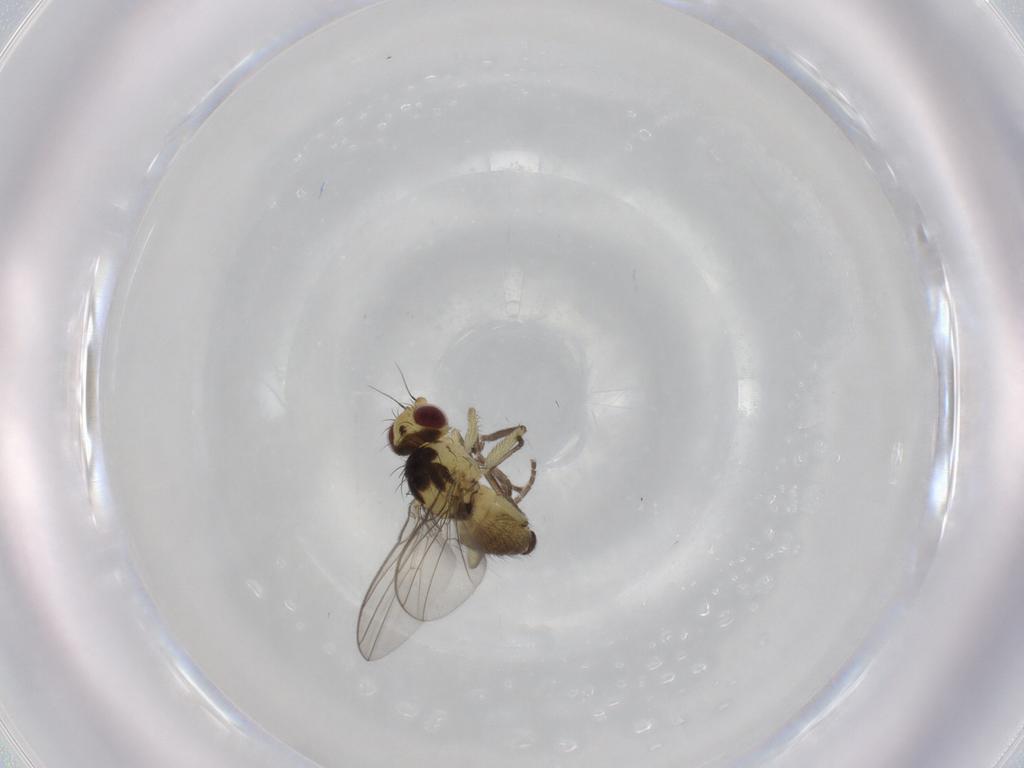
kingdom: Animalia
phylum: Arthropoda
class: Insecta
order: Diptera
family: Agromyzidae
